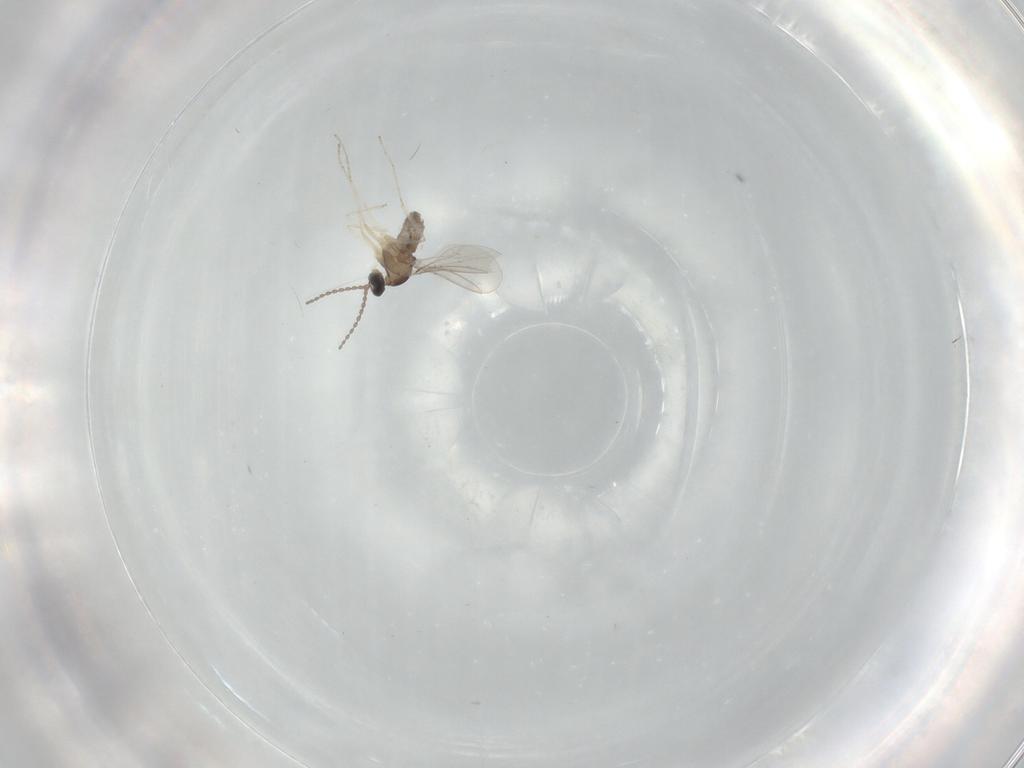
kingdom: Animalia
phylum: Arthropoda
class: Insecta
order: Diptera
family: Cecidomyiidae
